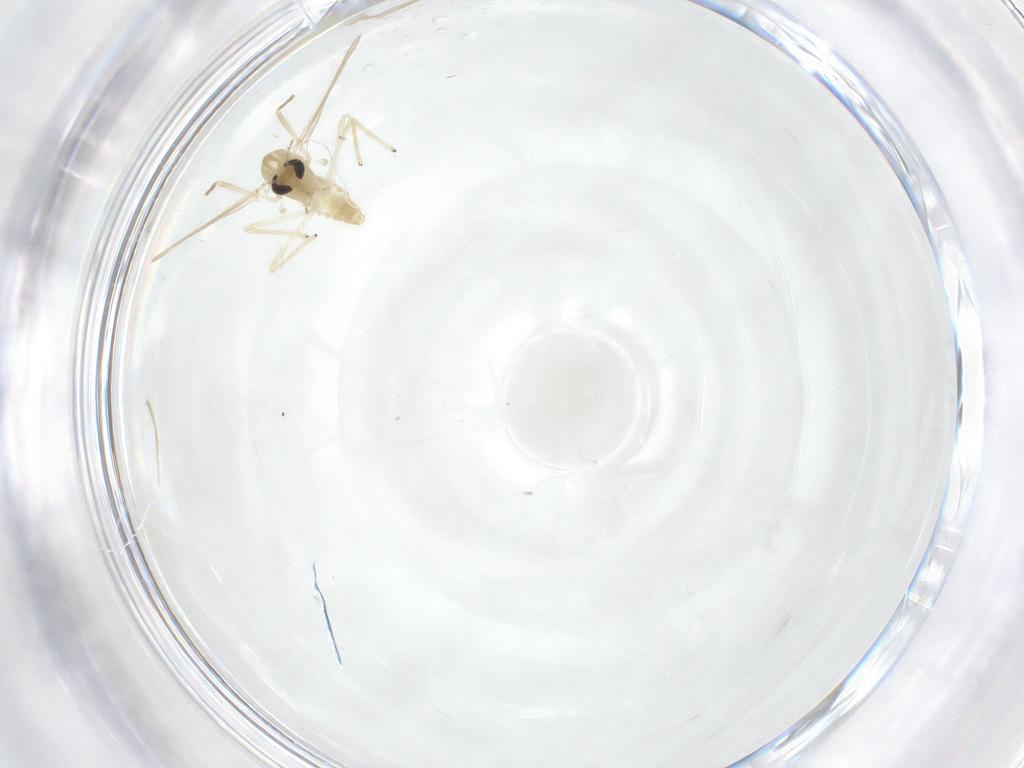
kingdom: Animalia
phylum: Arthropoda
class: Insecta
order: Diptera
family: Chironomidae
